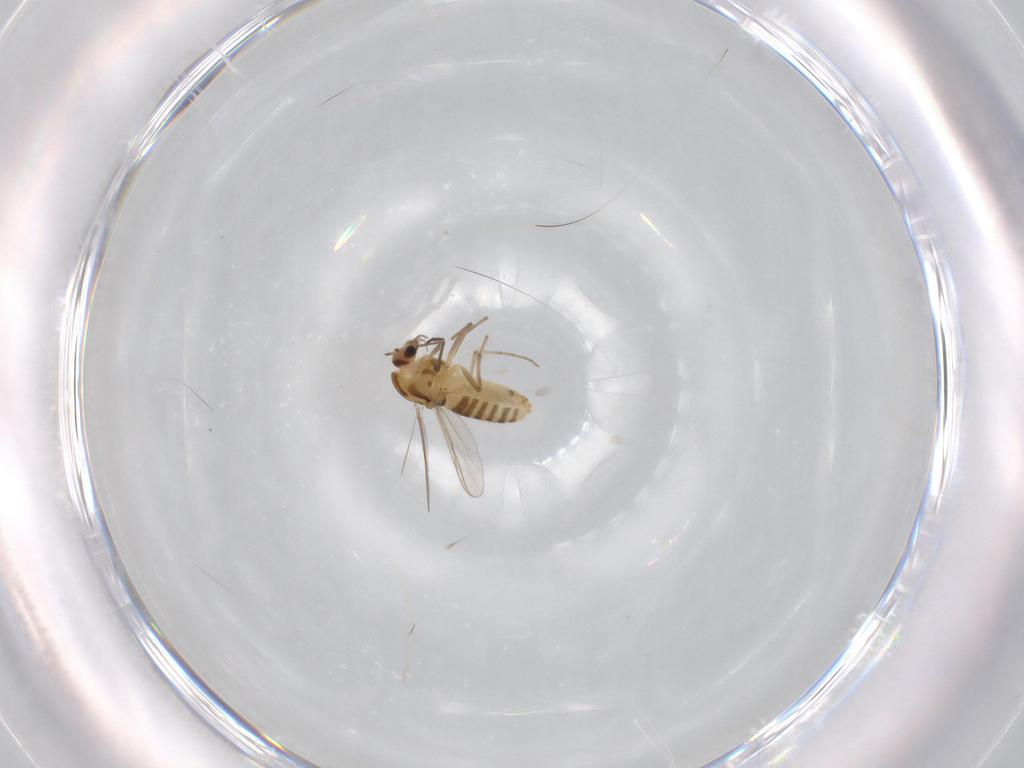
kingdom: Animalia
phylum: Arthropoda
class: Insecta
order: Diptera
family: Chironomidae
